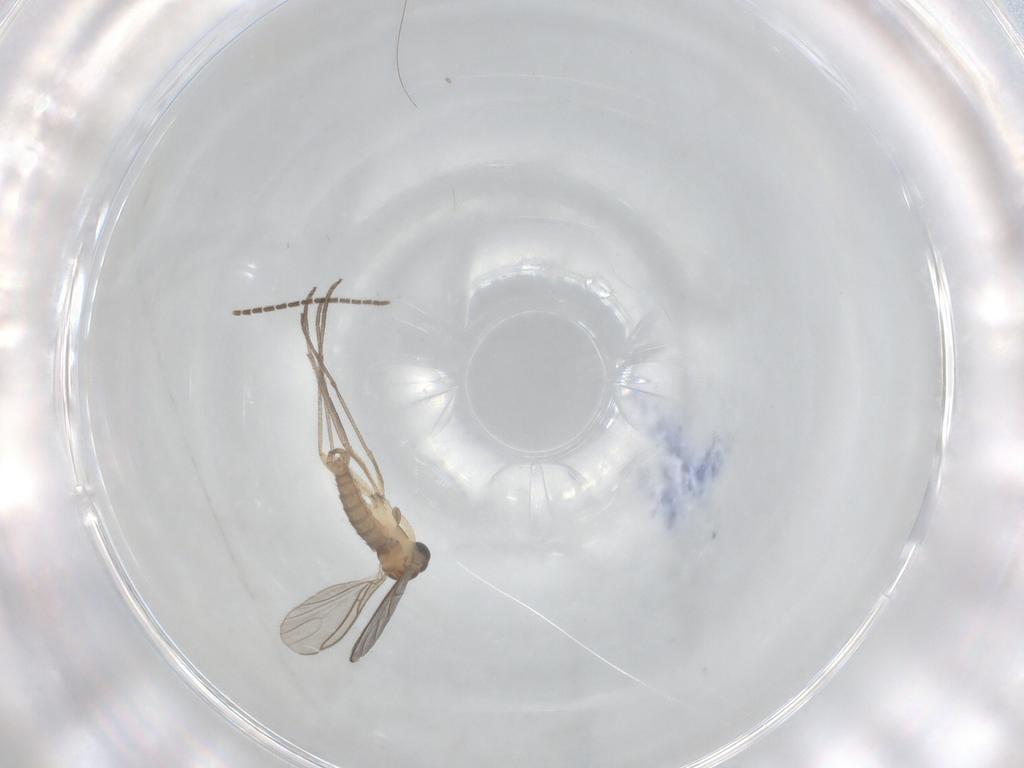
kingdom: Animalia
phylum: Arthropoda
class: Insecta
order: Diptera
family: Sciaridae
